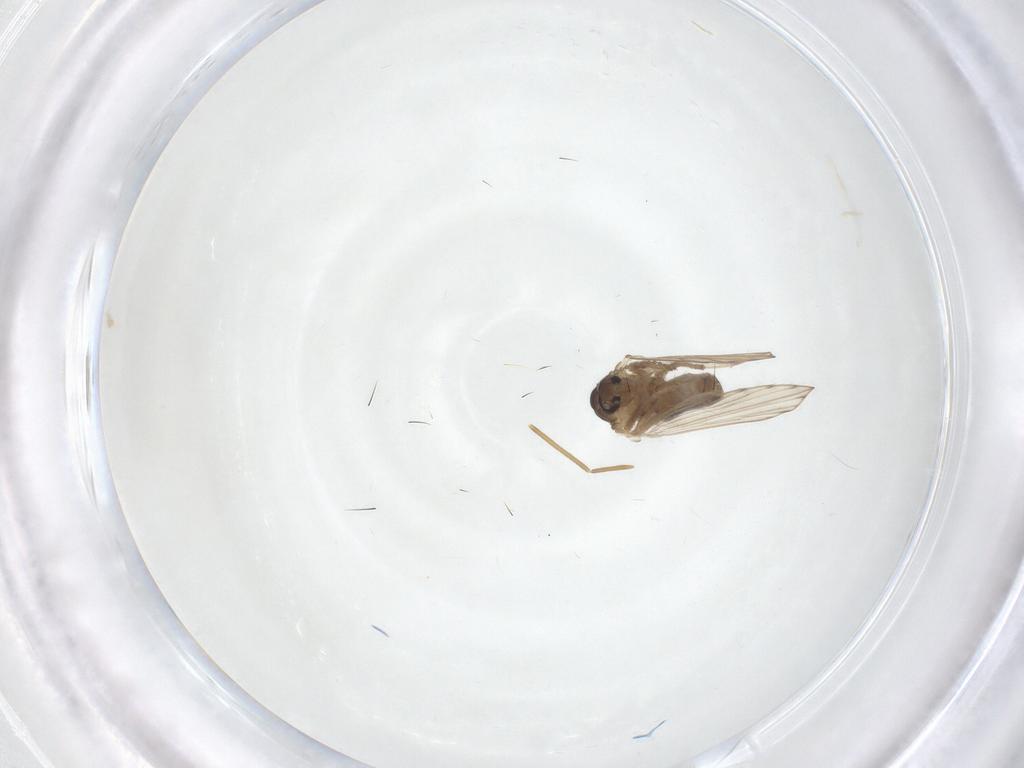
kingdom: Animalia
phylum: Arthropoda
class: Insecta
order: Diptera
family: Psychodidae
